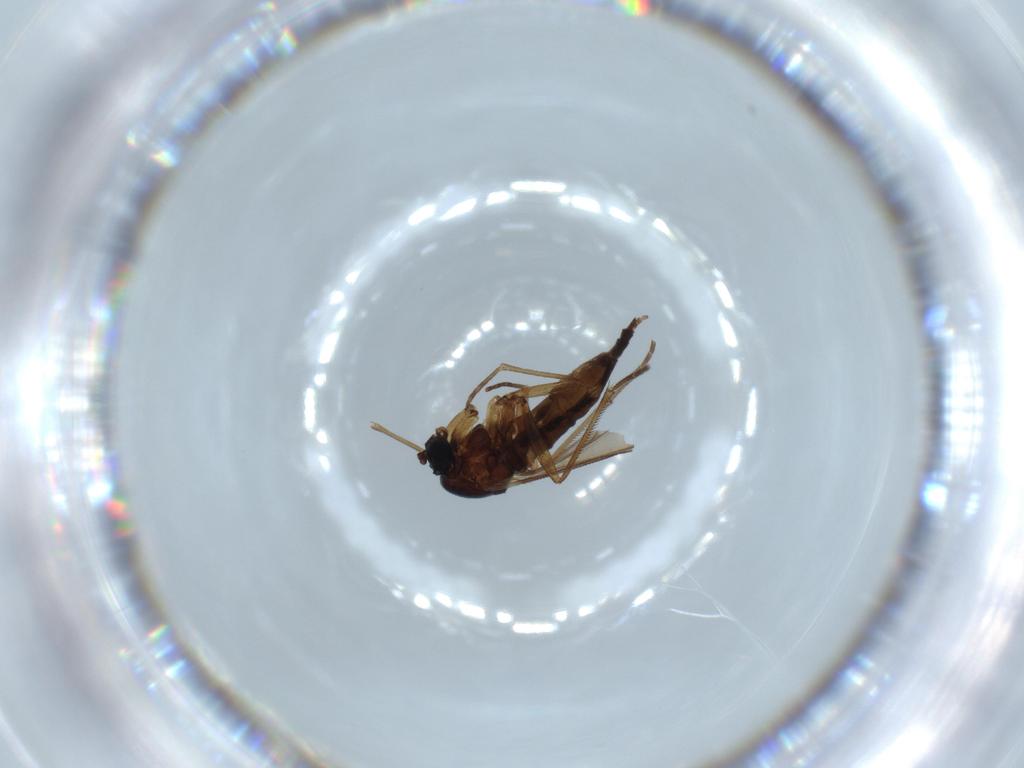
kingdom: Animalia
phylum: Arthropoda
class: Insecta
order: Diptera
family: Sciaridae
